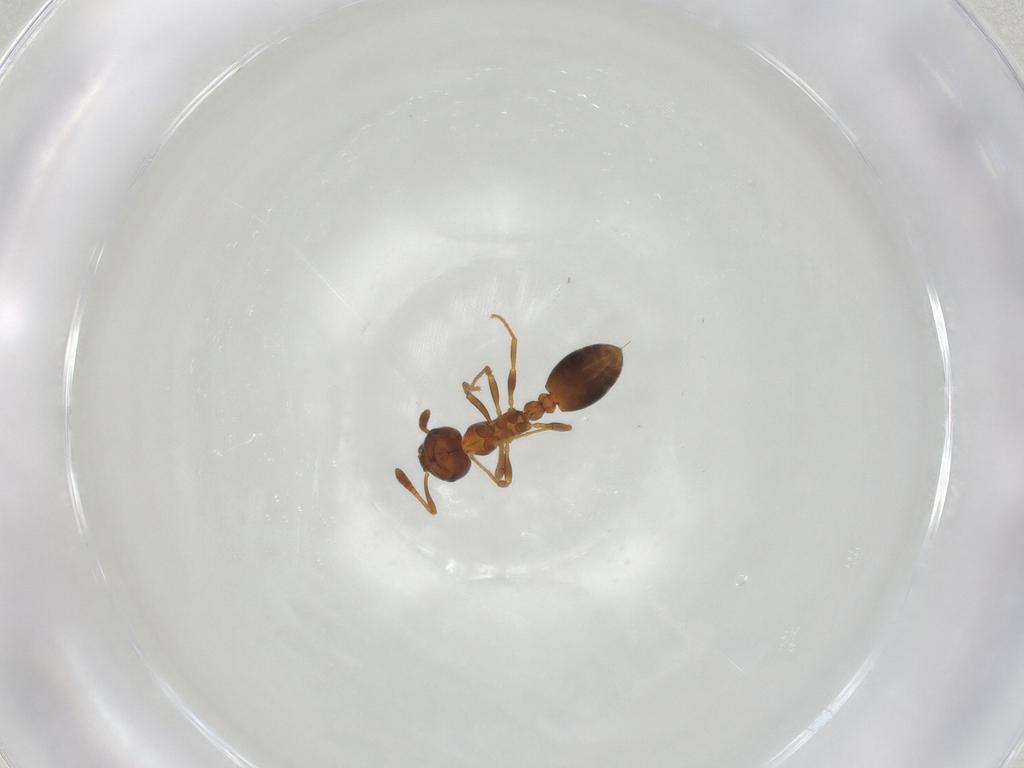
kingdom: Animalia
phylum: Arthropoda
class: Insecta
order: Hymenoptera
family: Formicidae
